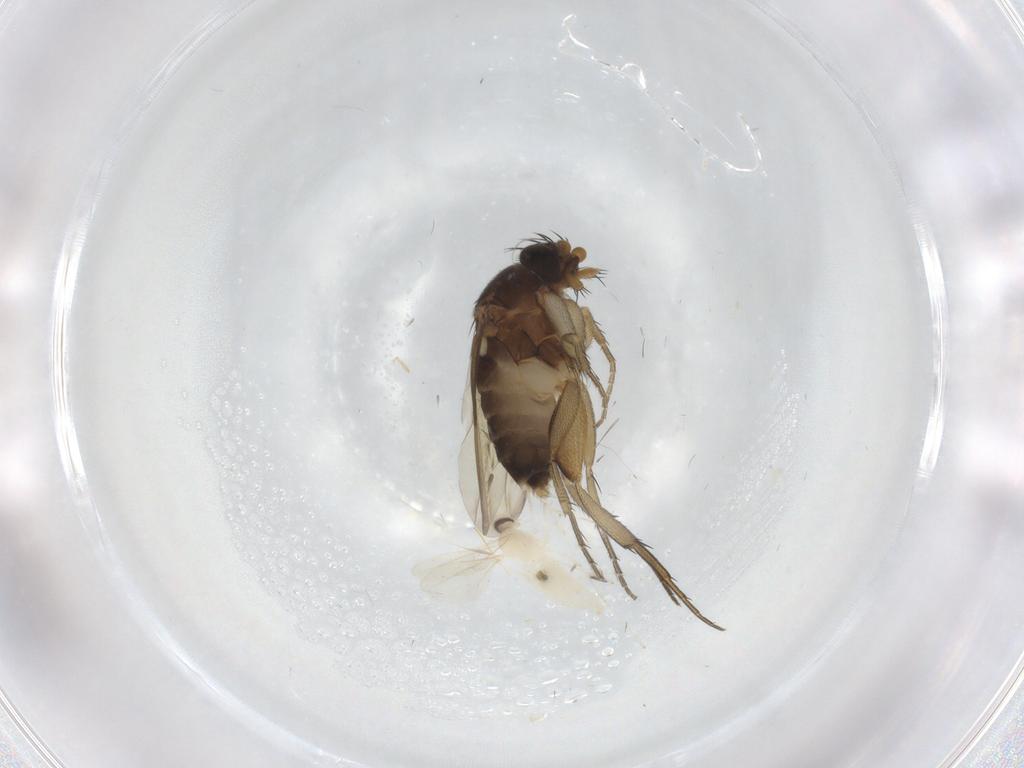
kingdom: Animalia
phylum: Arthropoda
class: Insecta
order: Diptera
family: Phoridae
